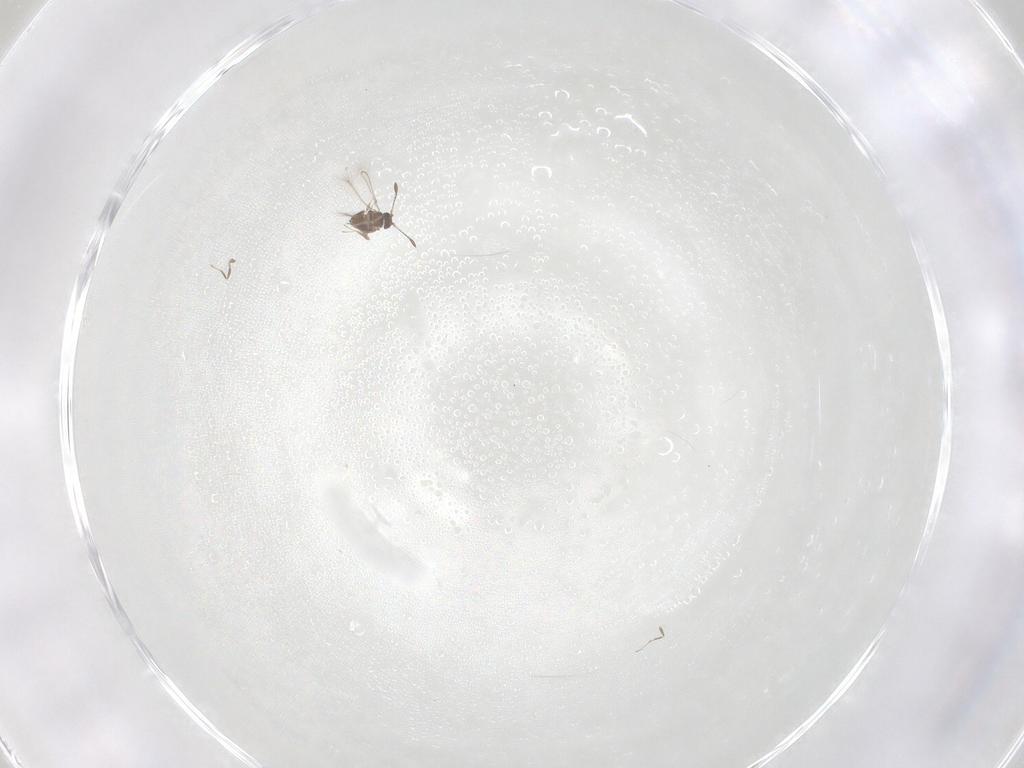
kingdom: Animalia
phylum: Arthropoda
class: Insecta
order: Hymenoptera
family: Mymaridae
